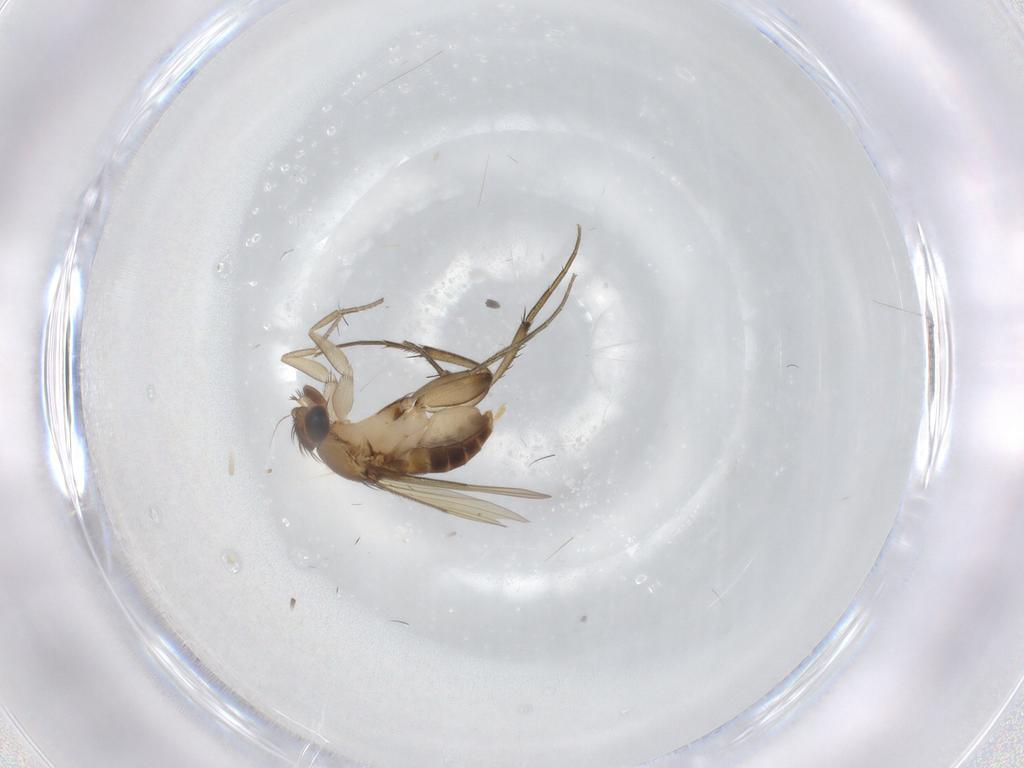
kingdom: Animalia
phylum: Arthropoda
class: Insecta
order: Diptera
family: Phoridae
